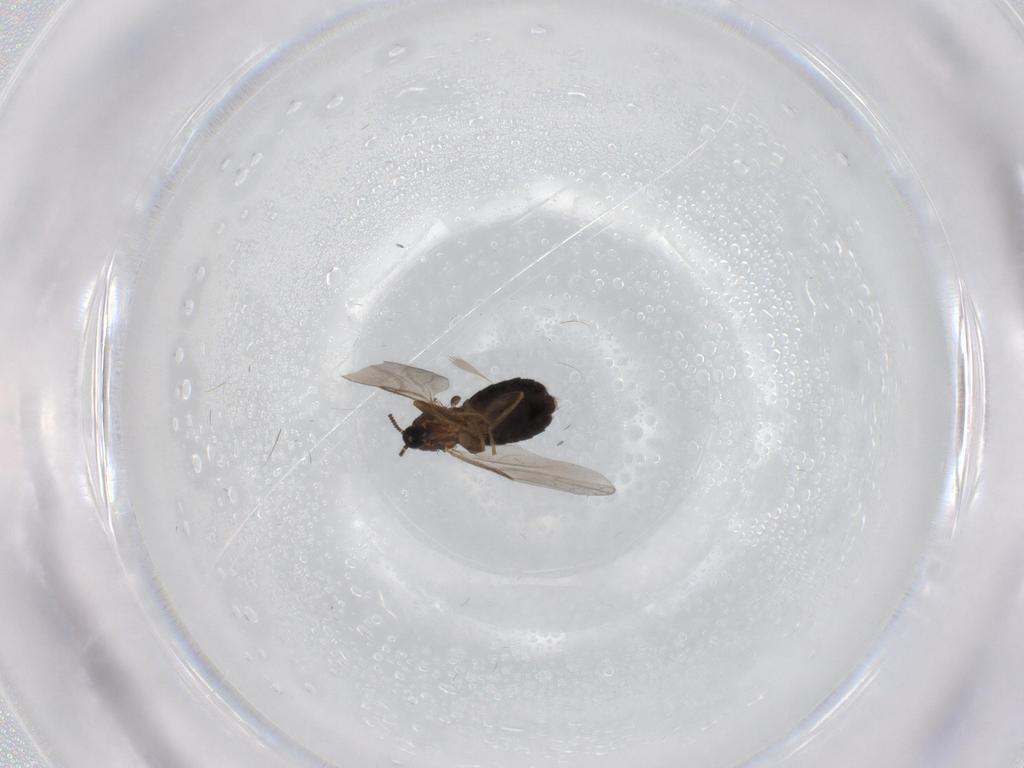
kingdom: Animalia
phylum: Arthropoda
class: Insecta
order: Diptera
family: Scatopsidae
